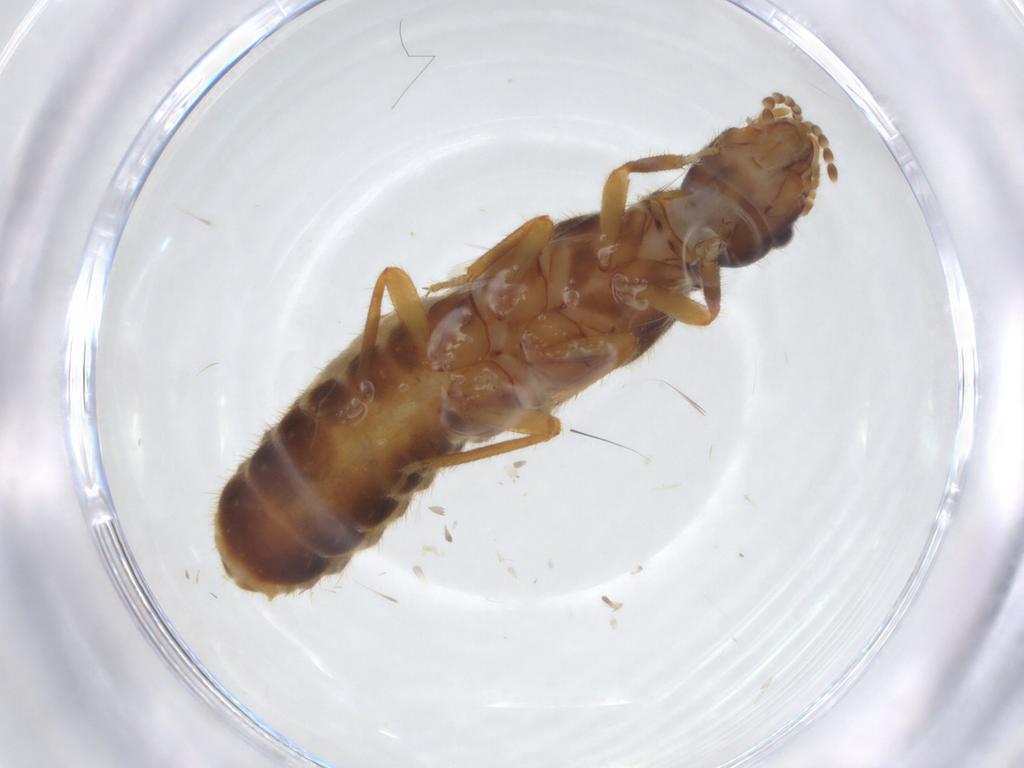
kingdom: Animalia
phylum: Arthropoda
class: Insecta
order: Blattodea
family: Termitidae
